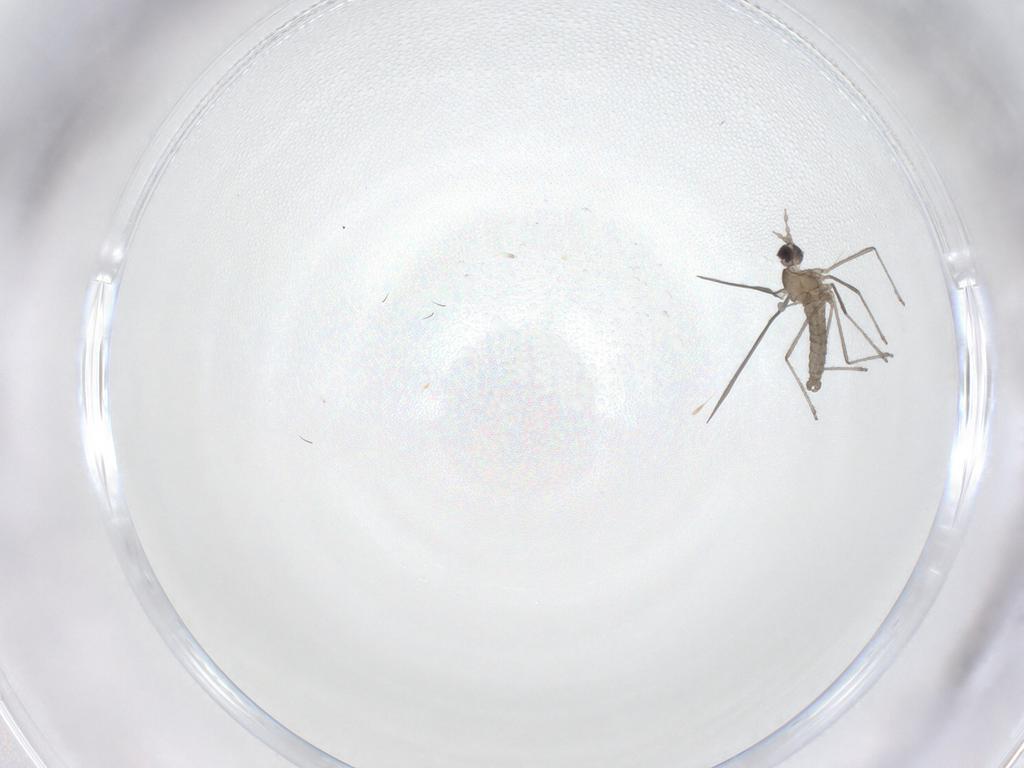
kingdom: Animalia
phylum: Arthropoda
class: Insecta
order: Diptera
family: Cecidomyiidae
